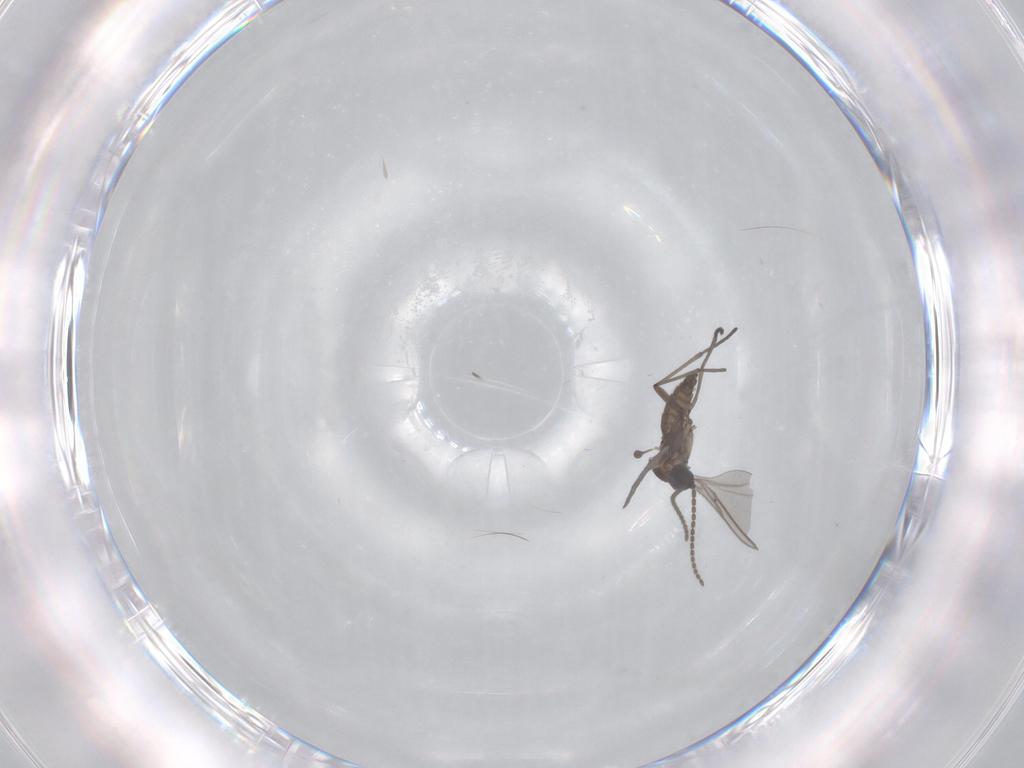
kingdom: Animalia
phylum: Arthropoda
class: Insecta
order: Diptera
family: Sciaridae
